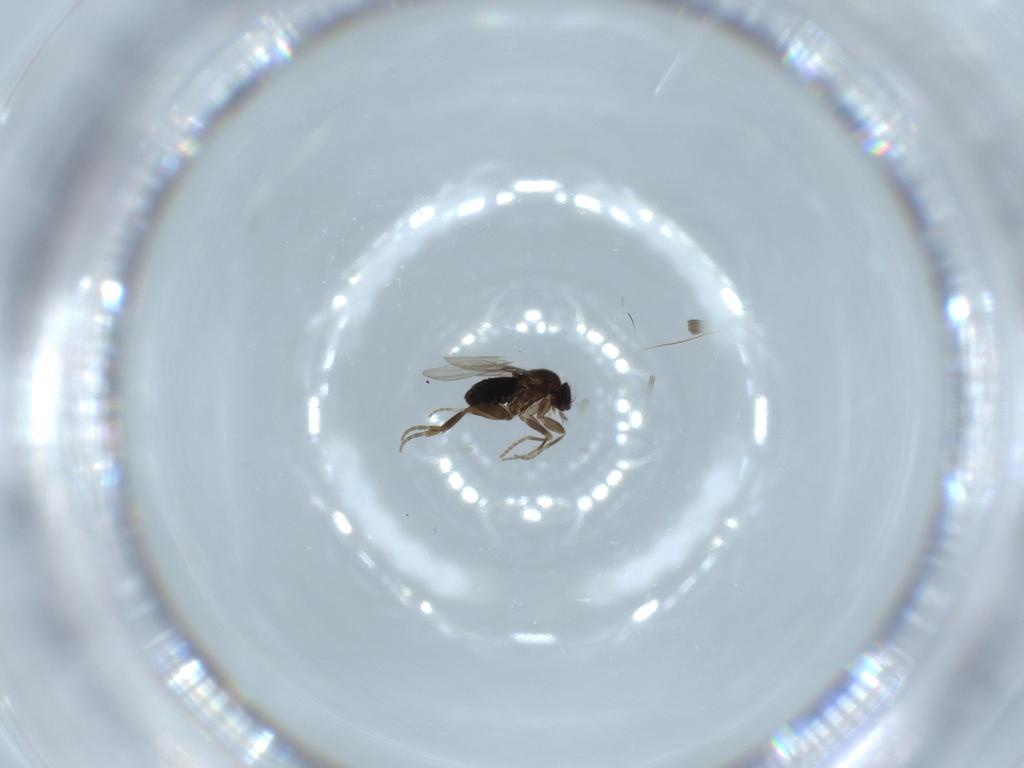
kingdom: Animalia
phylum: Arthropoda
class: Insecta
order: Diptera
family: Phoridae
